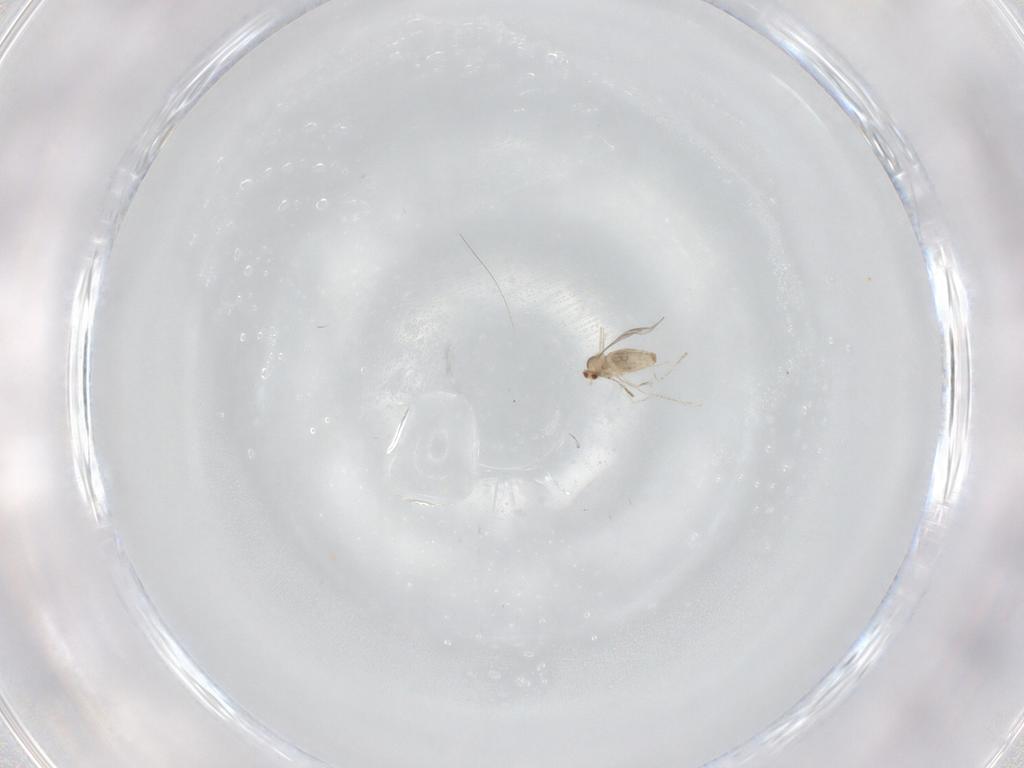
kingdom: Animalia
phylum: Arthropoda
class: Insecta
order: Diptera
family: Cecidomyiidae
